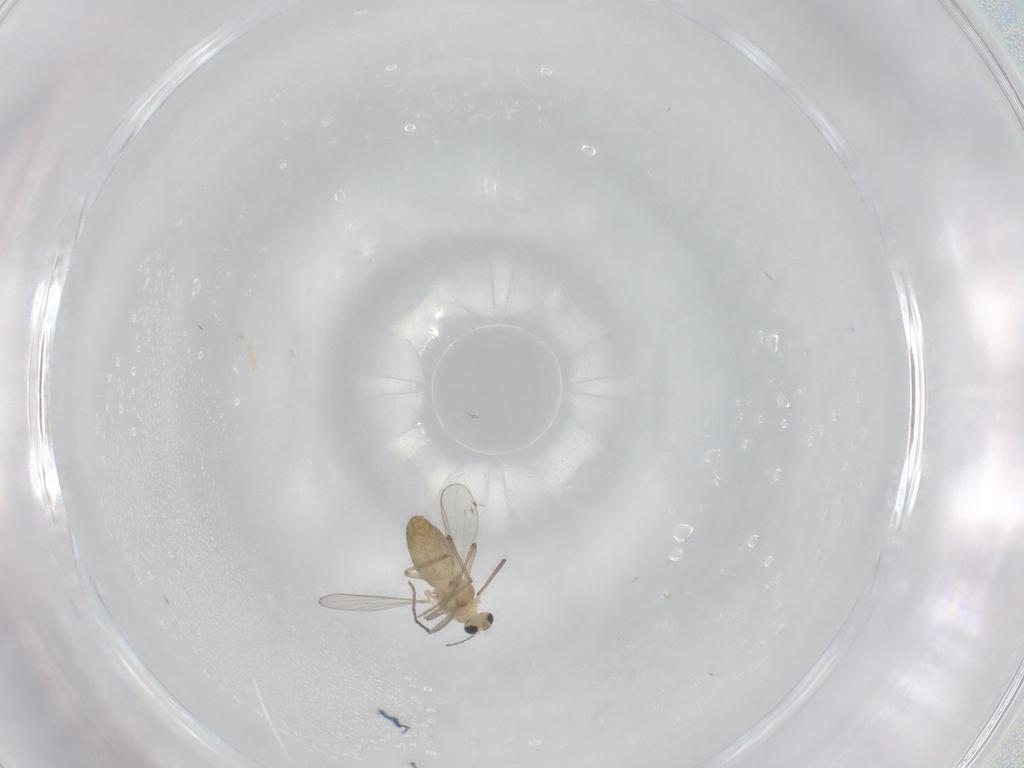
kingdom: Animalia
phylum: Arthropoda
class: Insecta
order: Diptera
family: Chironomidae
